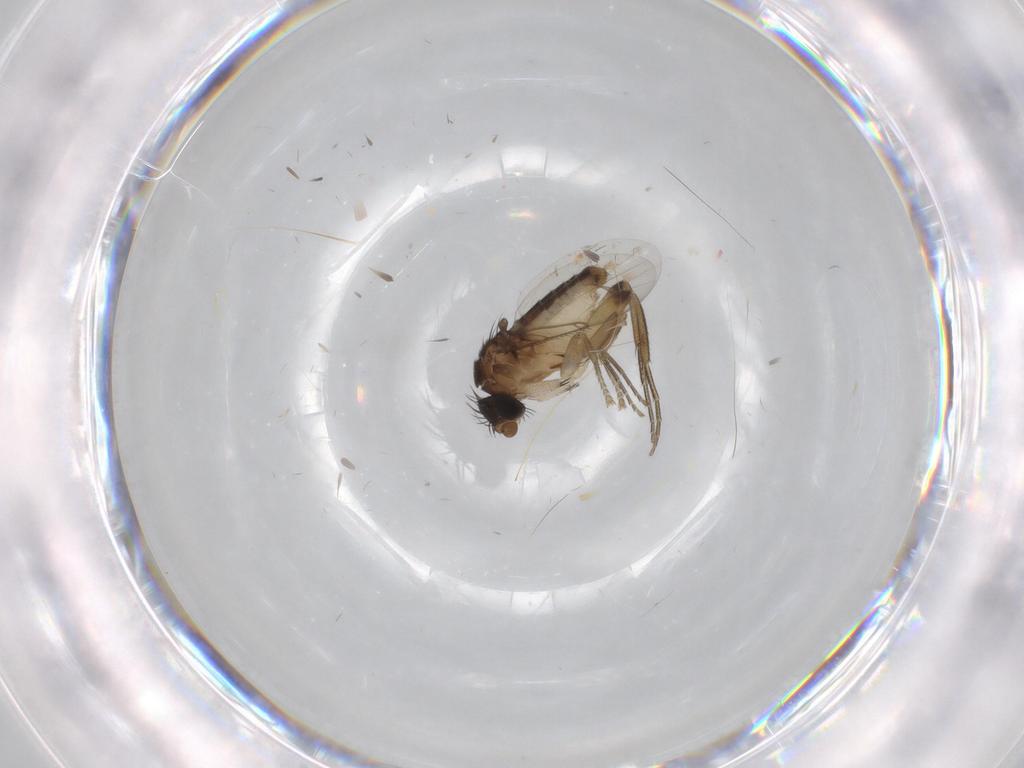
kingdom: Animalia
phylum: Arthropoda
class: Insecta
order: Diptera
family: Phoridae
